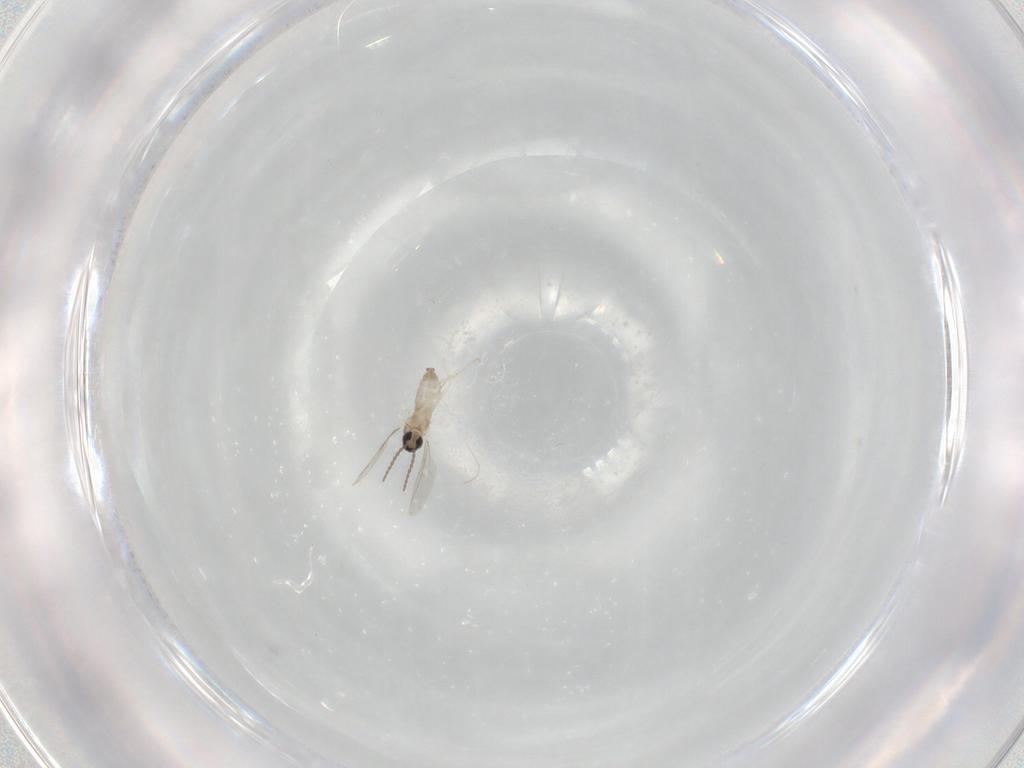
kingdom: Animalia
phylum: Arthropoda
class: Insecta
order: Diptera
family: Cecidomyiidae
